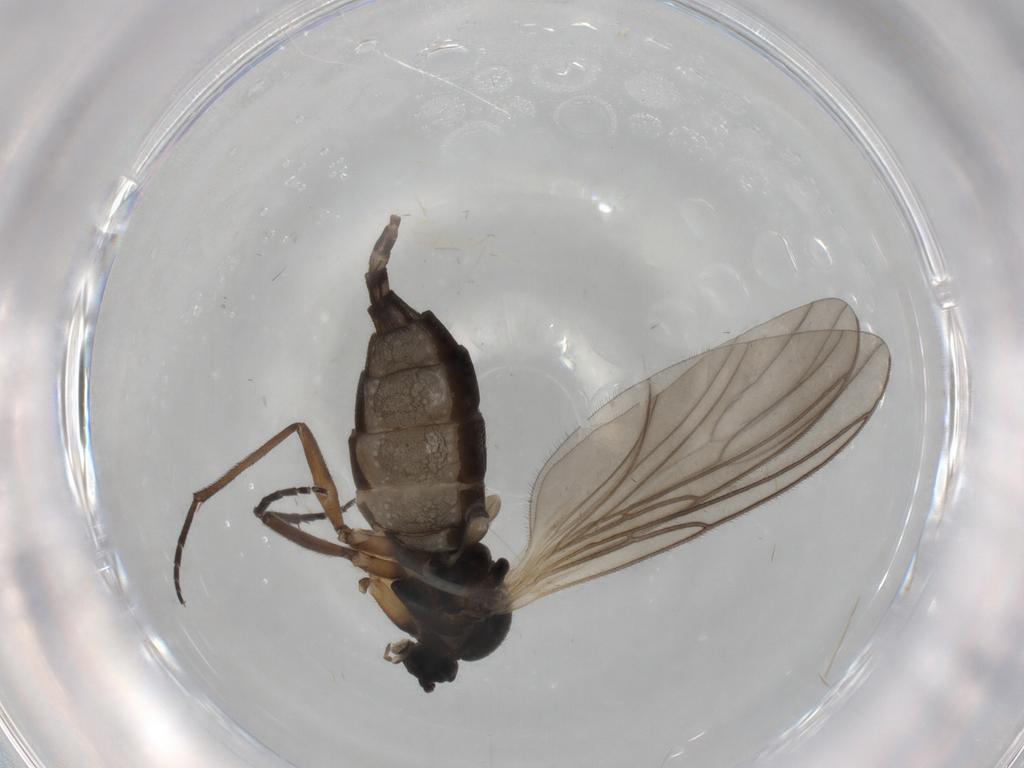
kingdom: Animalia
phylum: Arthropoda
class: Insecta
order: Diptera
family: Sciaridae
